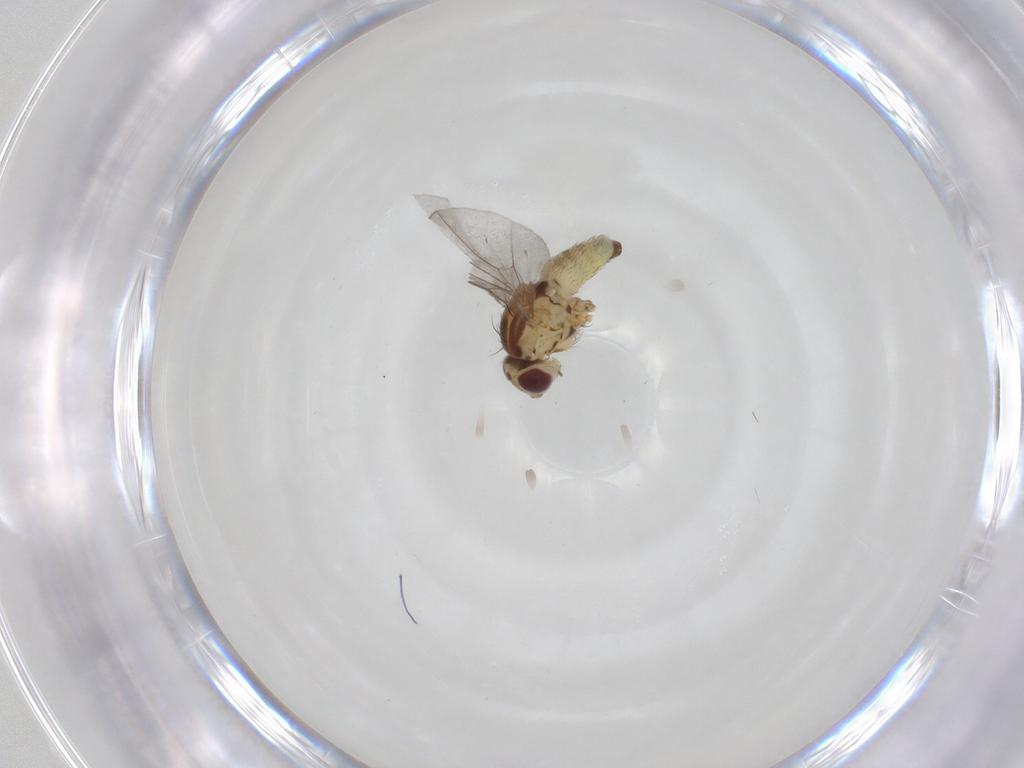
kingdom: Animalia
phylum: Arthropoda
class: Insecta
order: Diptera
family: Agromyzidae
